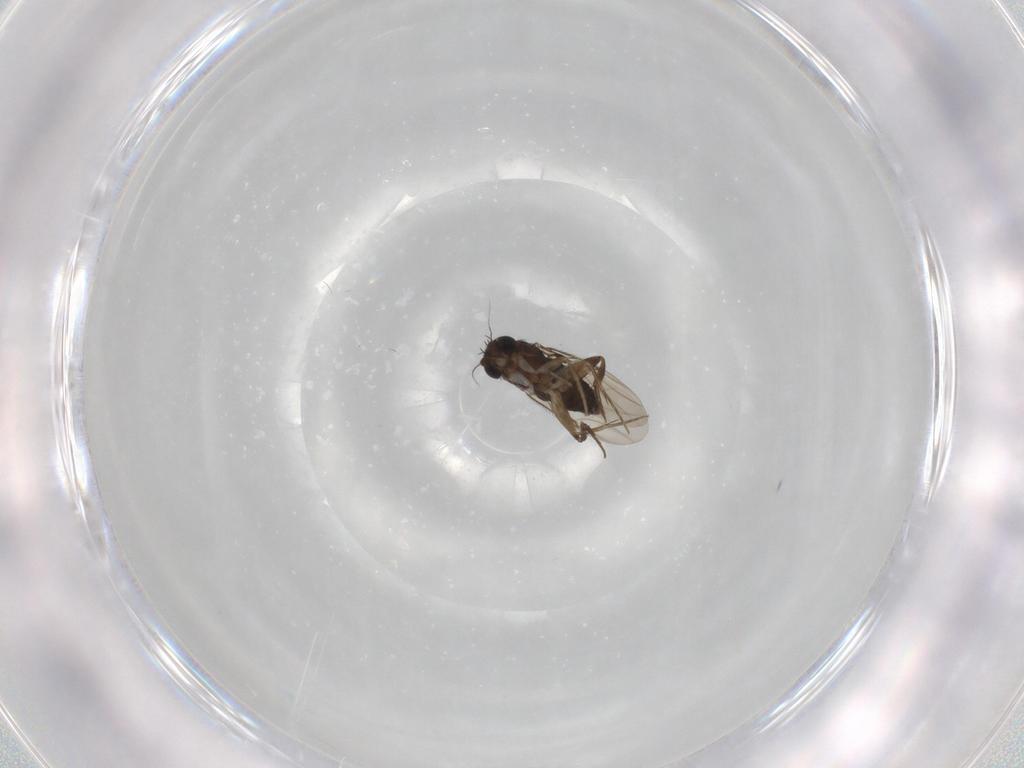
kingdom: Animalia
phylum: Arthropoda
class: Insecta
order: Diptera
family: Phoridae
